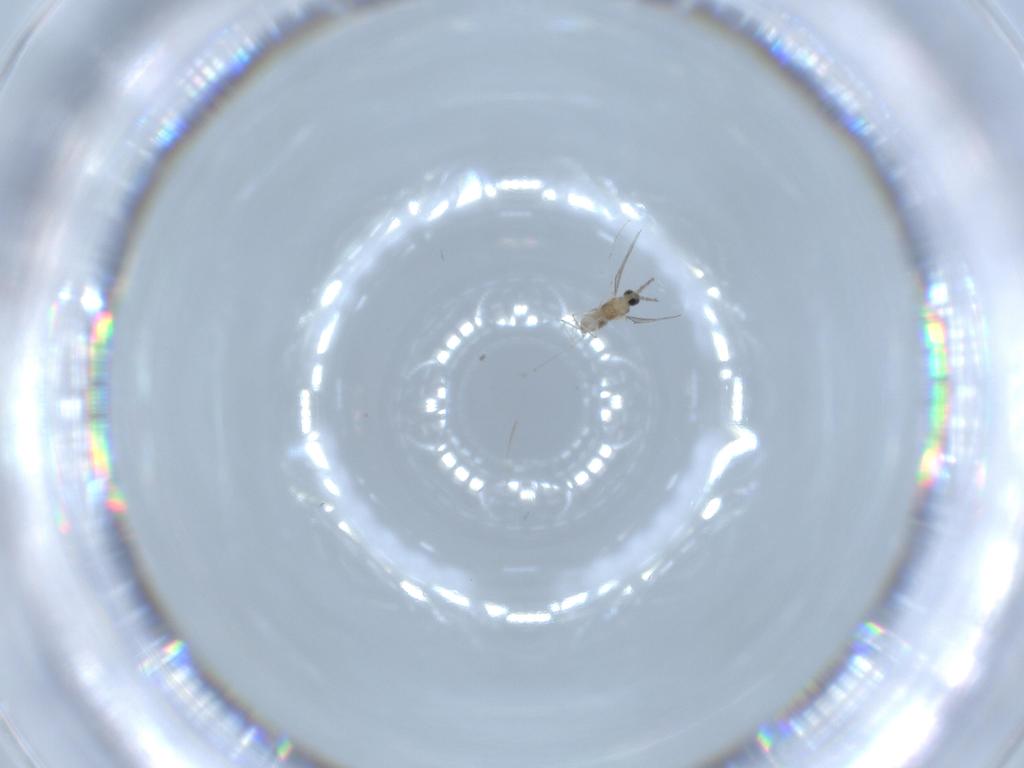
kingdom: Animalia
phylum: Arthropoda
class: Insecta
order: Diptera
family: Cecidomyiidae
